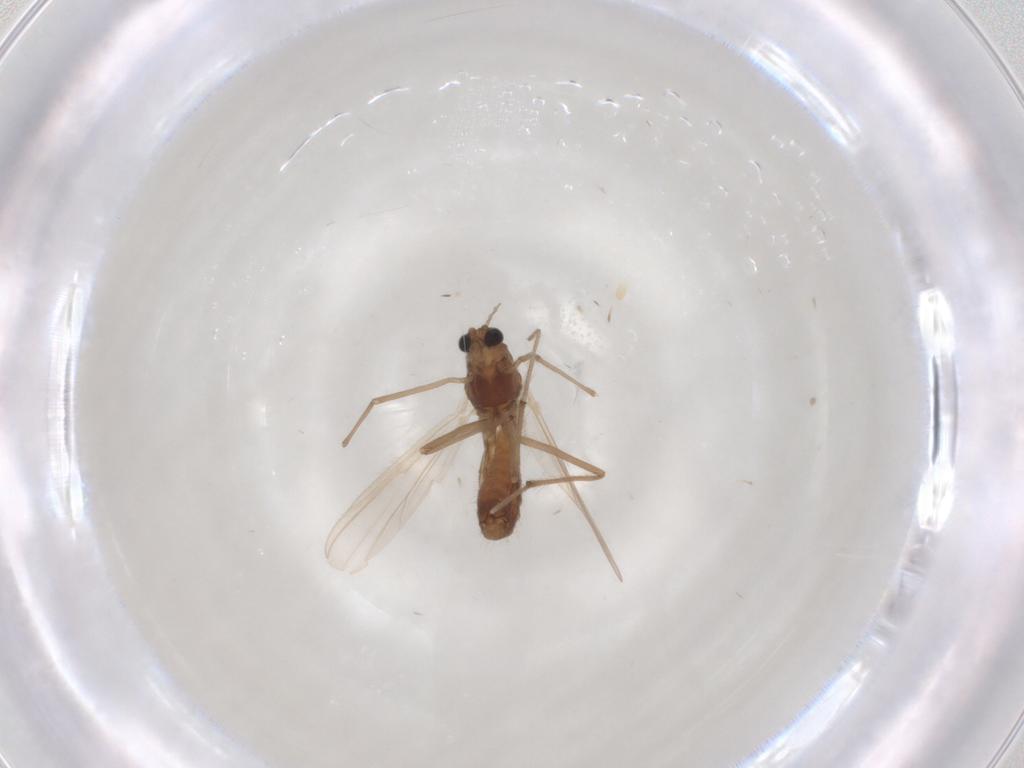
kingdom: Animalia
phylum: Arthropoda
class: Insecta
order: Diptera
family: Chironomidae
